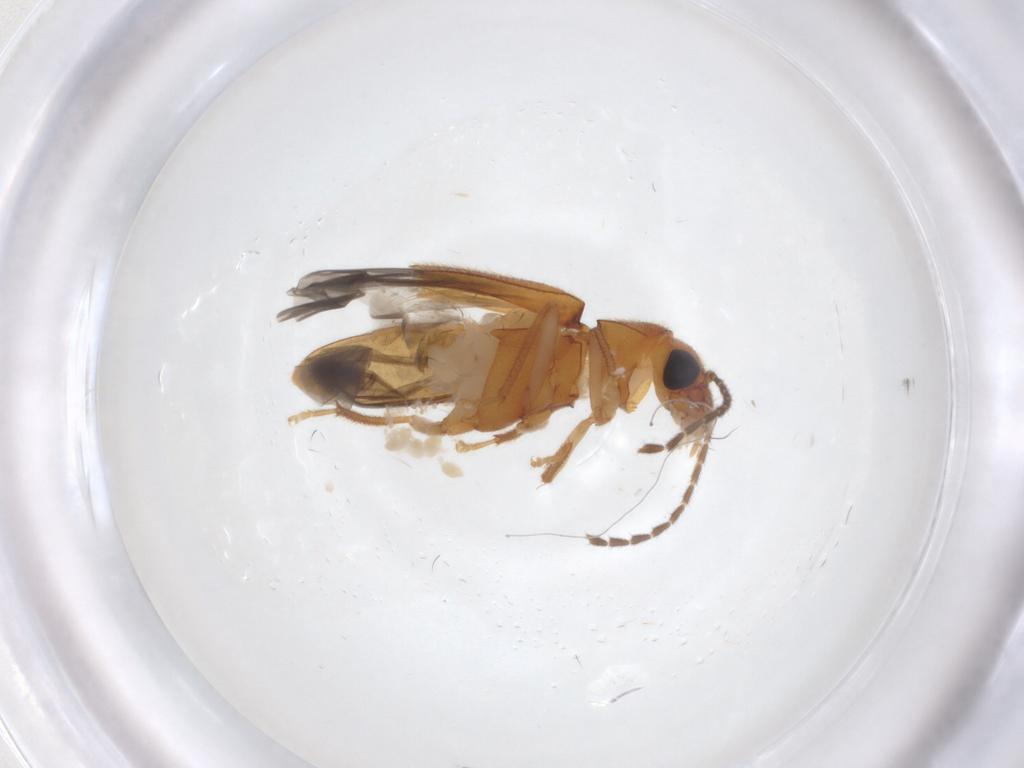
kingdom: Animalia
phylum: Arthropoda
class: Insecta
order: Coleoptera
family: Ptilodactylidae
